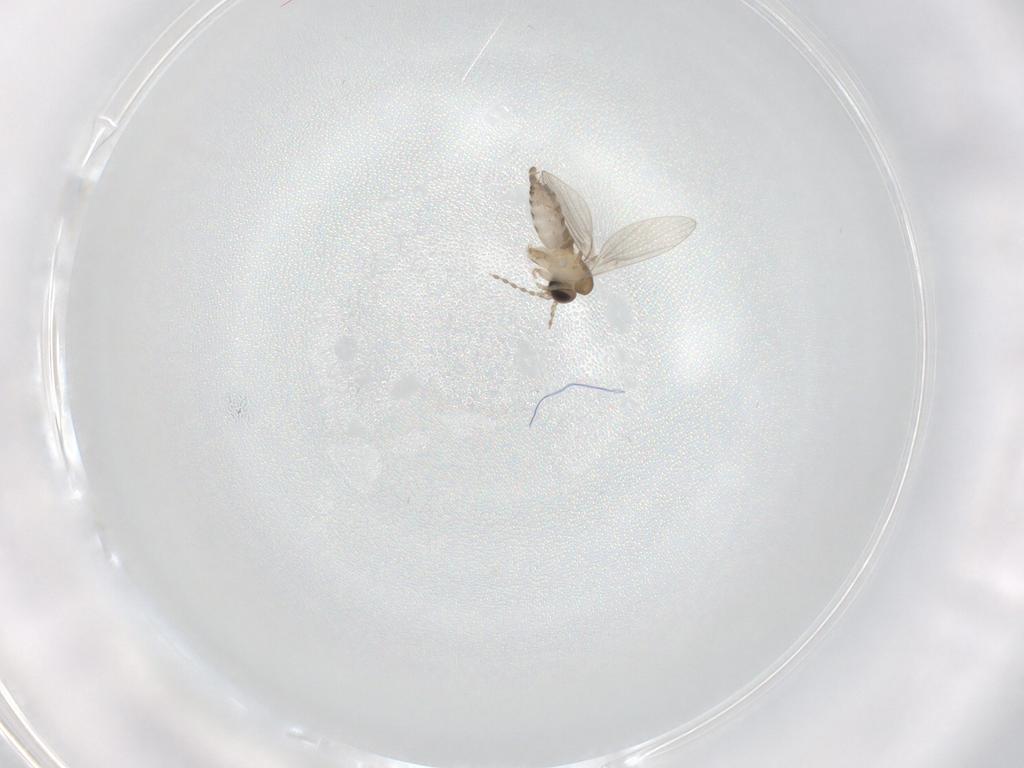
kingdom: Animalia
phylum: Arthropoda
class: Insecta
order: Diptera
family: Phoridae
